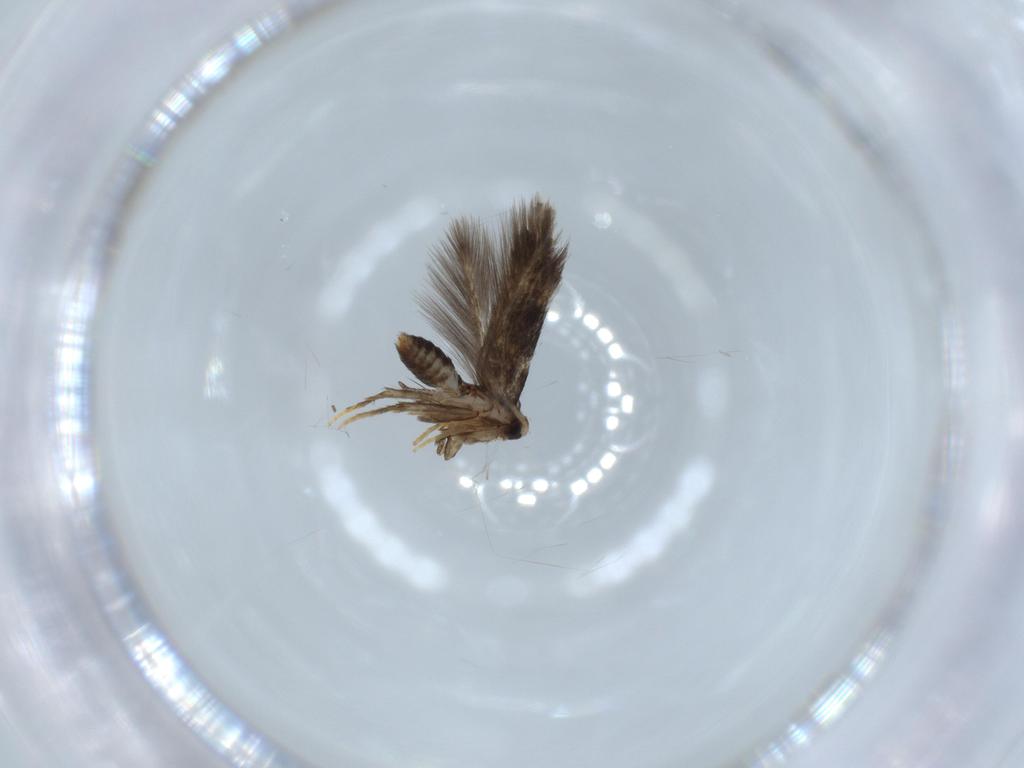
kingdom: Animalia
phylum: Arthropoda
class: Insecta
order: Lepidoptera
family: Nepticulidae
